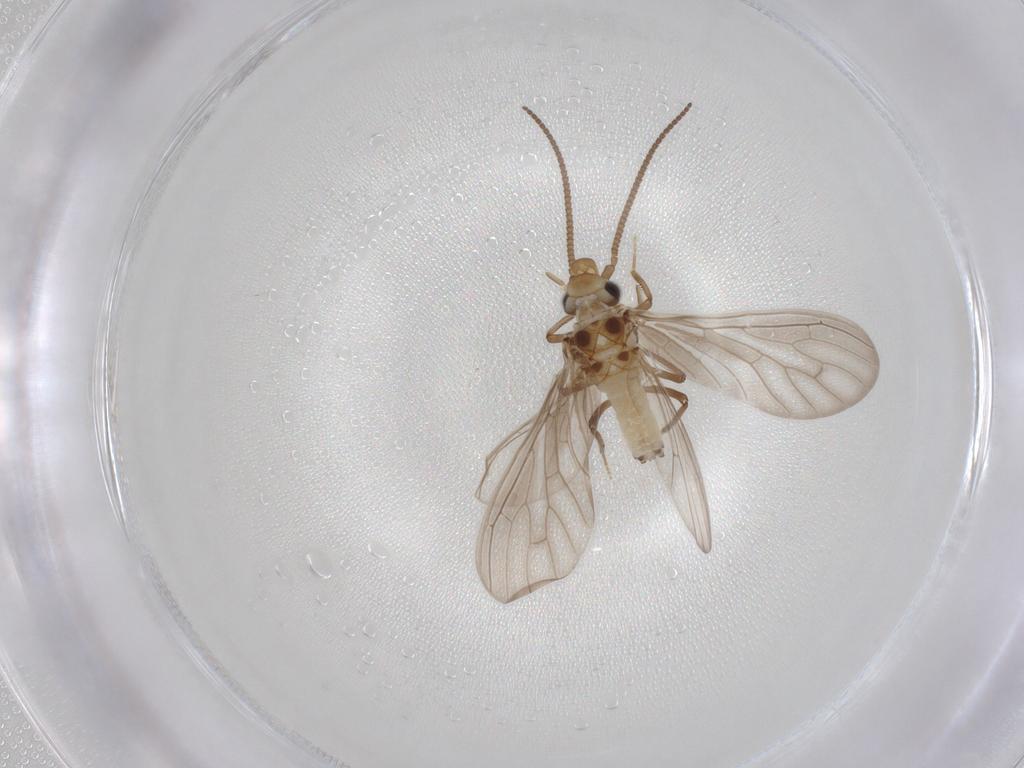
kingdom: Animalia
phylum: Arthropoda
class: Insecta
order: Neuroptera
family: Coniopterygidae
